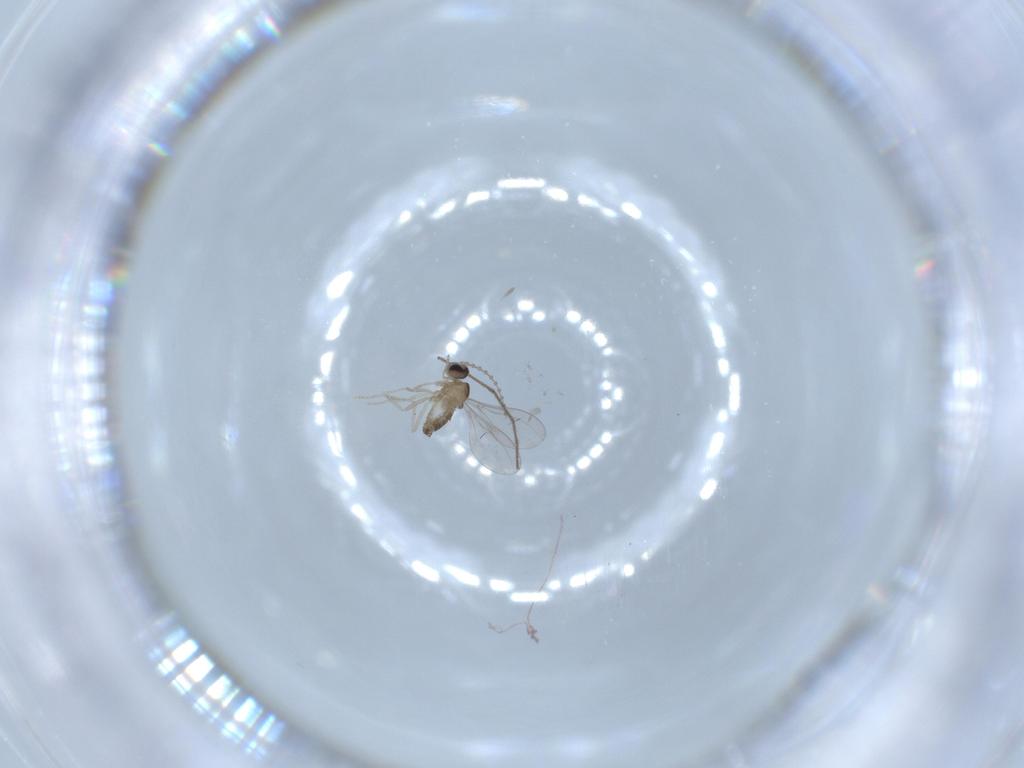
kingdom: Animalia
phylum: Arthropoda
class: Insecta
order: Diptera
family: Cecidomyiidae
